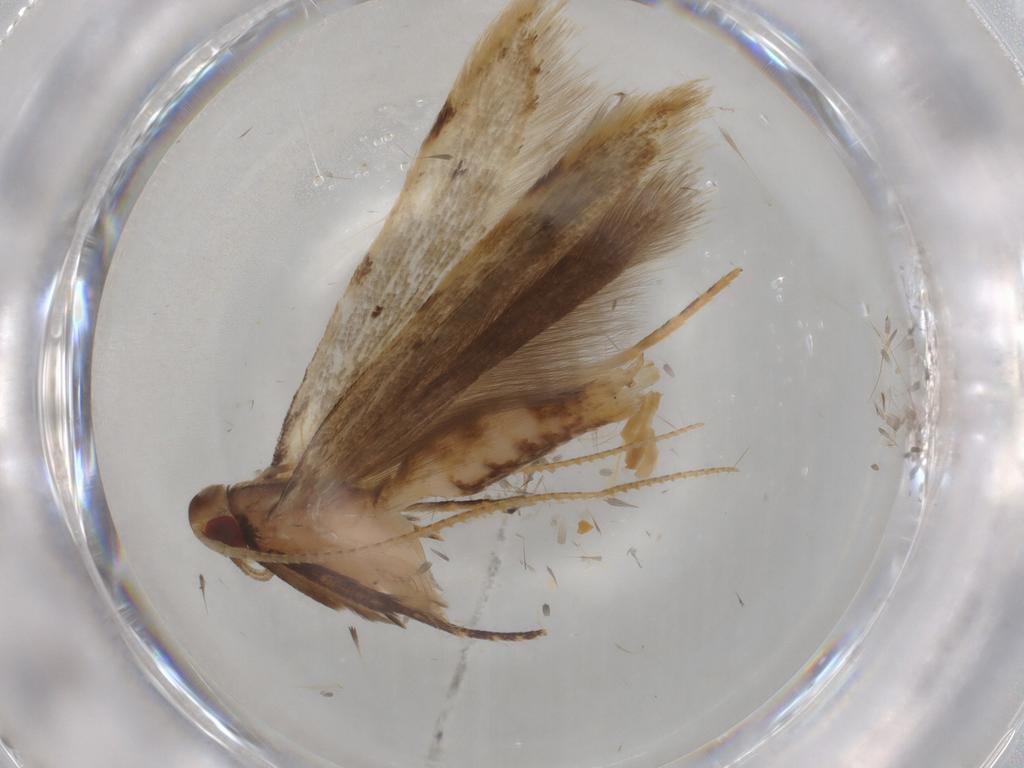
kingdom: Animalia
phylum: Arthropoda
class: Insecta
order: Lepidoptera
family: Gelechiidae
